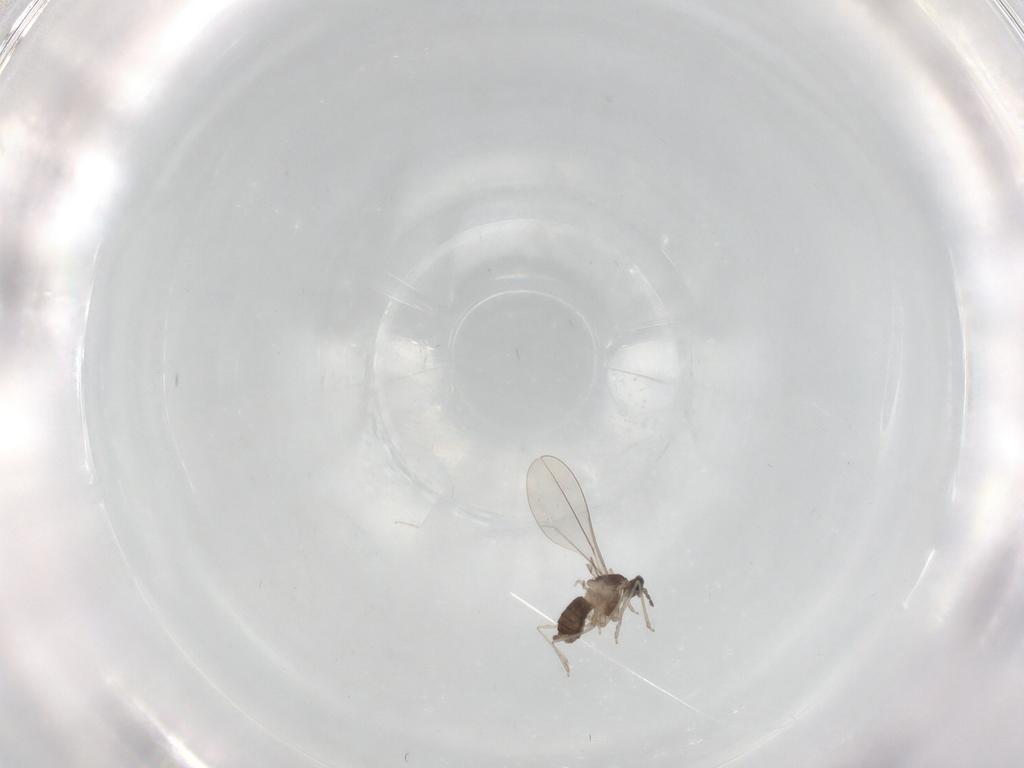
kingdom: Animalia
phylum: Arthropoda
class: Insecta
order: Diptera
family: Cecidomyiidae
